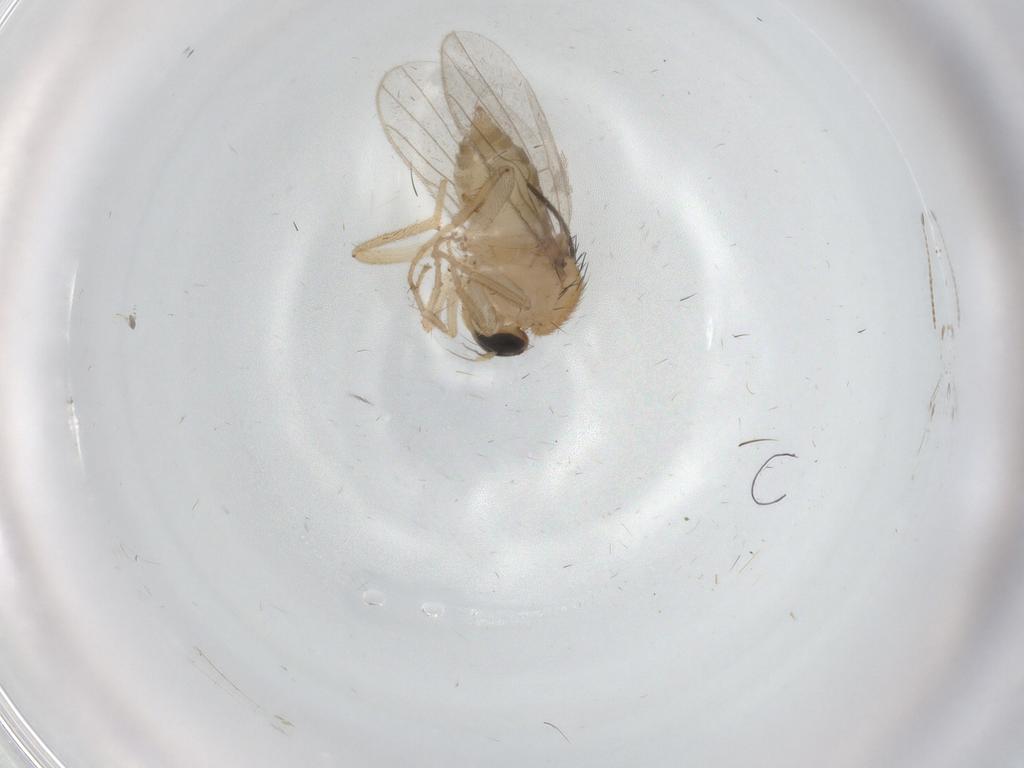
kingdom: Animalia
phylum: Arthropoda
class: Insecta
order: Diptera
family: Hybotidae
